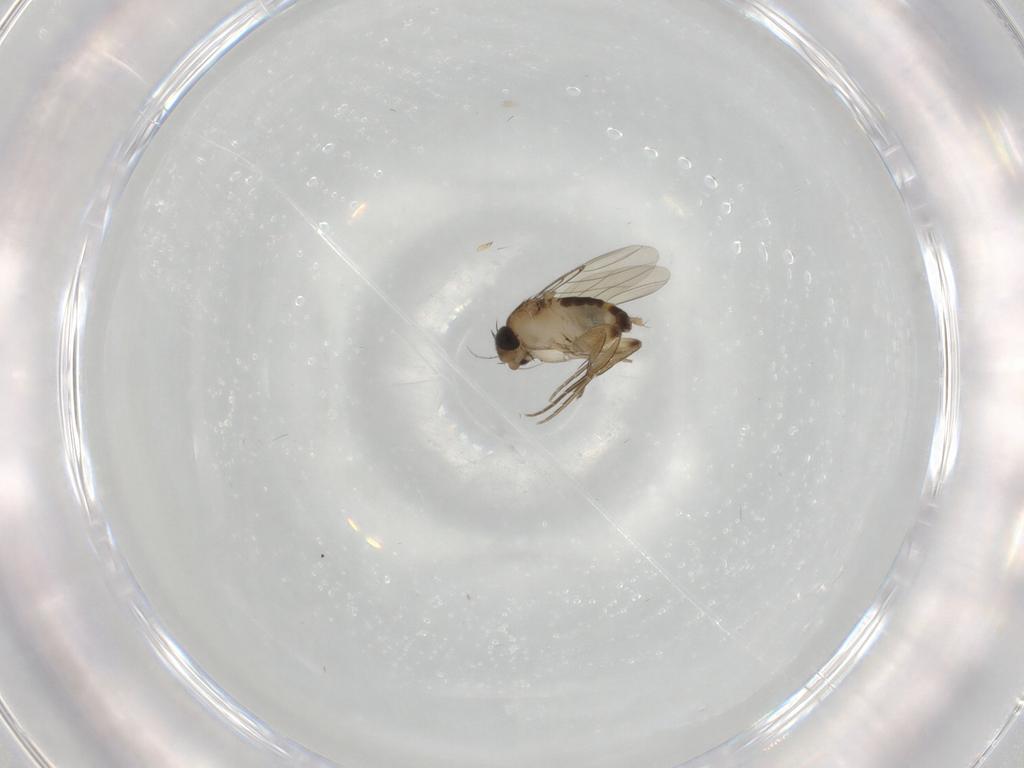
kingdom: Animalia
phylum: Arthropoda
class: Insecta
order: Diptera
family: Phoridae
